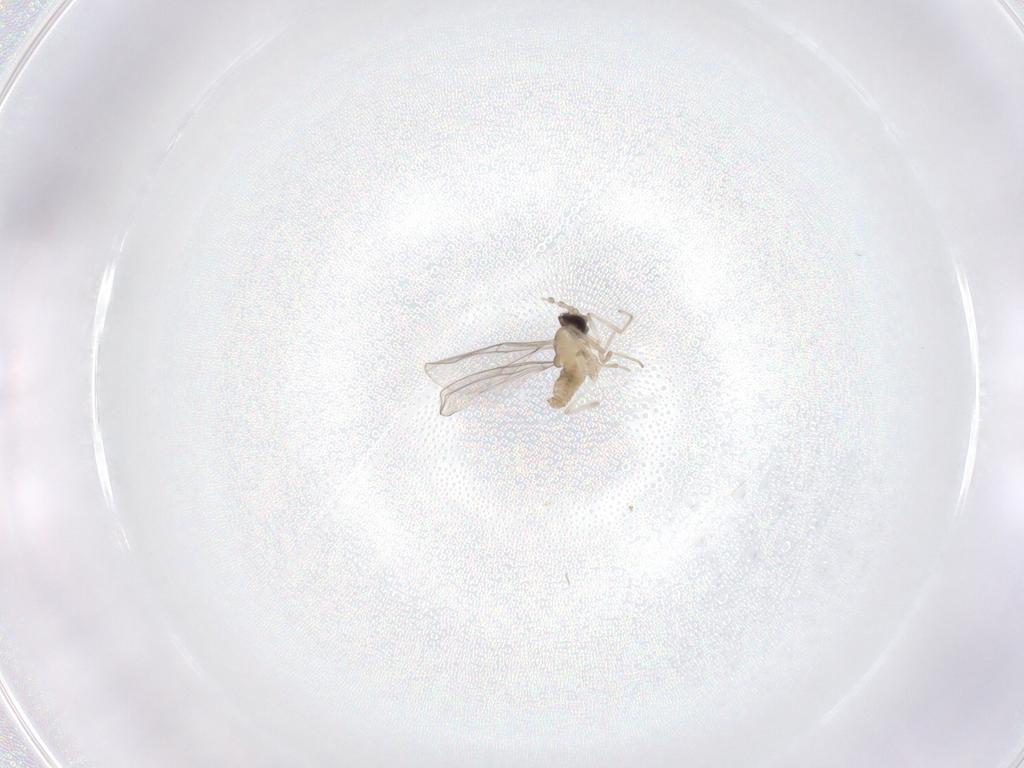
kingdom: Animalia
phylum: Arthropoda
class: Insecta
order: Diptera
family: Cecidomyiidae
